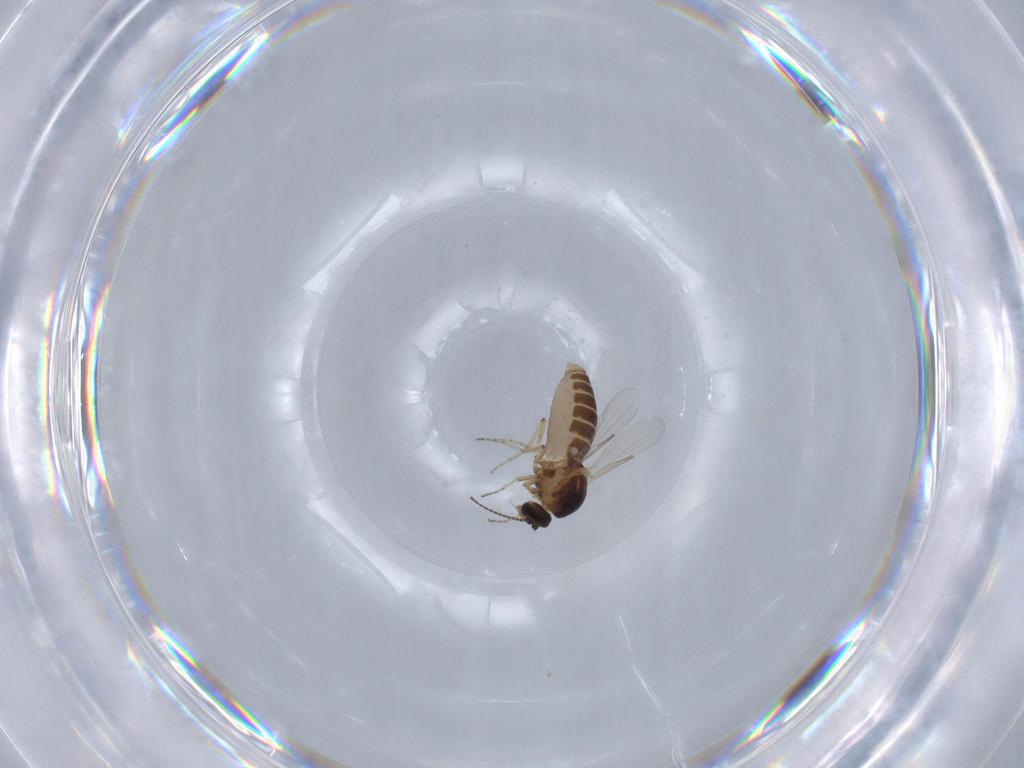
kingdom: Animalia
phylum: Arthropoda
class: Insecta
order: Diptera
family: Ceratopogonidae
